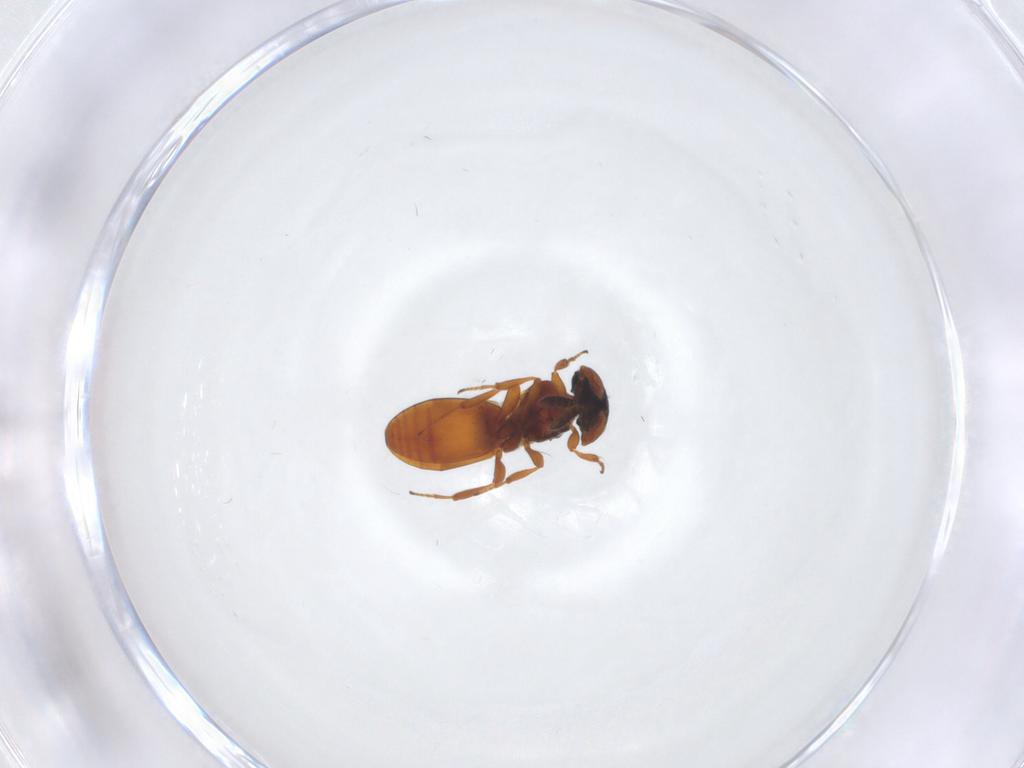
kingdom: Animalia
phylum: Arthropoda
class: Insecta
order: Hymenoptera
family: Platygastridae
